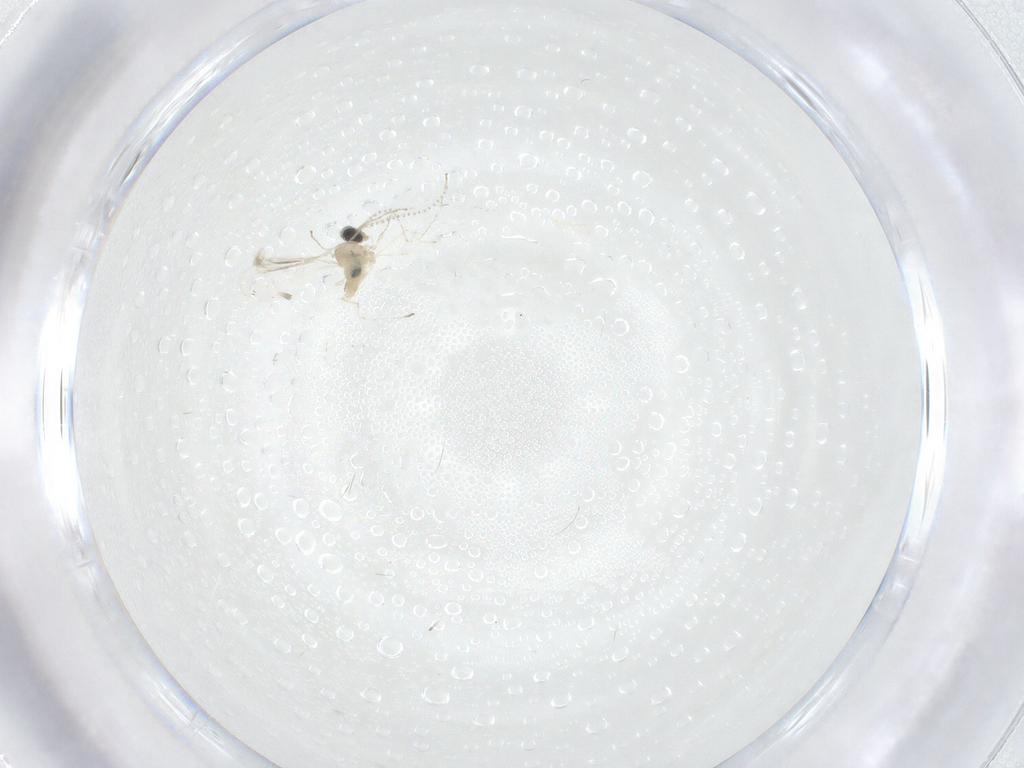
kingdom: Animalia
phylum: Arthropoda
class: Insecta
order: Diptera
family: Cecidomyiidae
